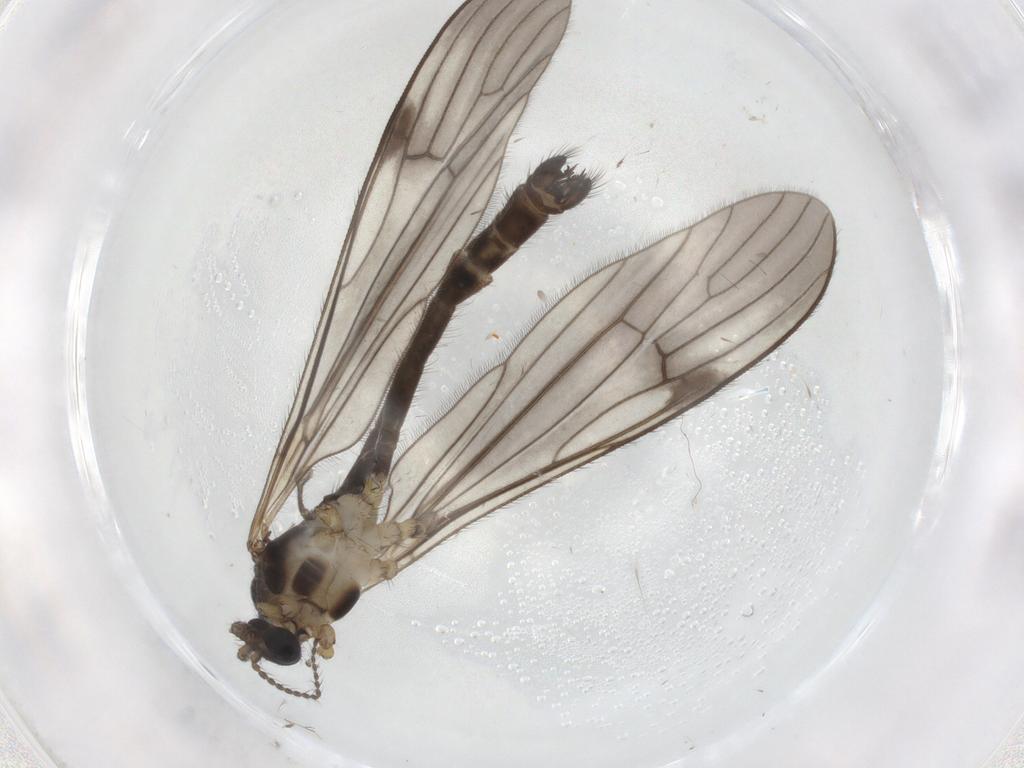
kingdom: Animalia
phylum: Arthropoda
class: Insecta
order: Diptera
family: Limoniidae
